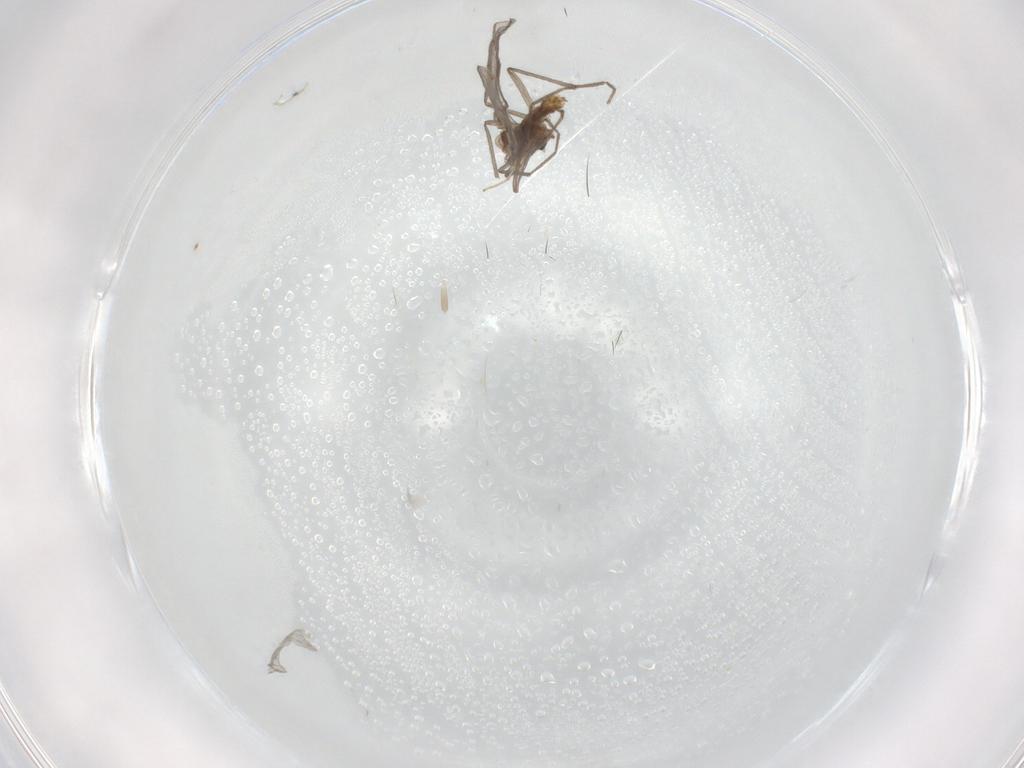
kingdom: Animalia
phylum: Arthropoda
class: Insecta
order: Diptera
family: Chironomidae
